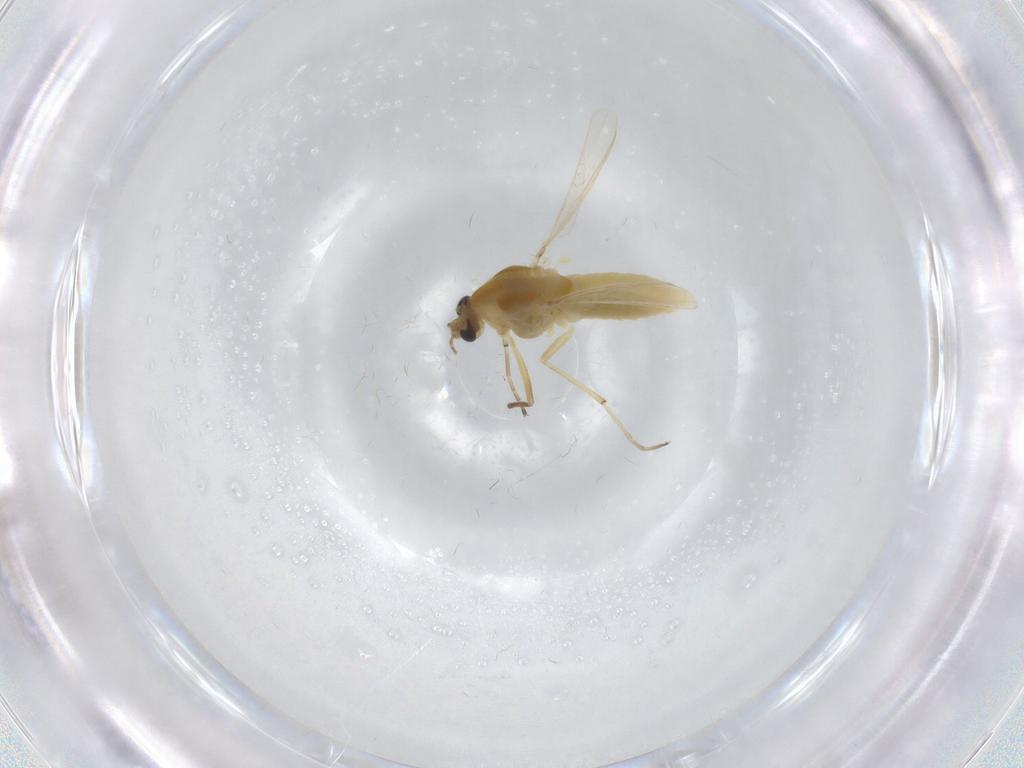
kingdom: Animalia
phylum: Arthropoda
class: Insecta
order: Diptera
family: Chironomidae
